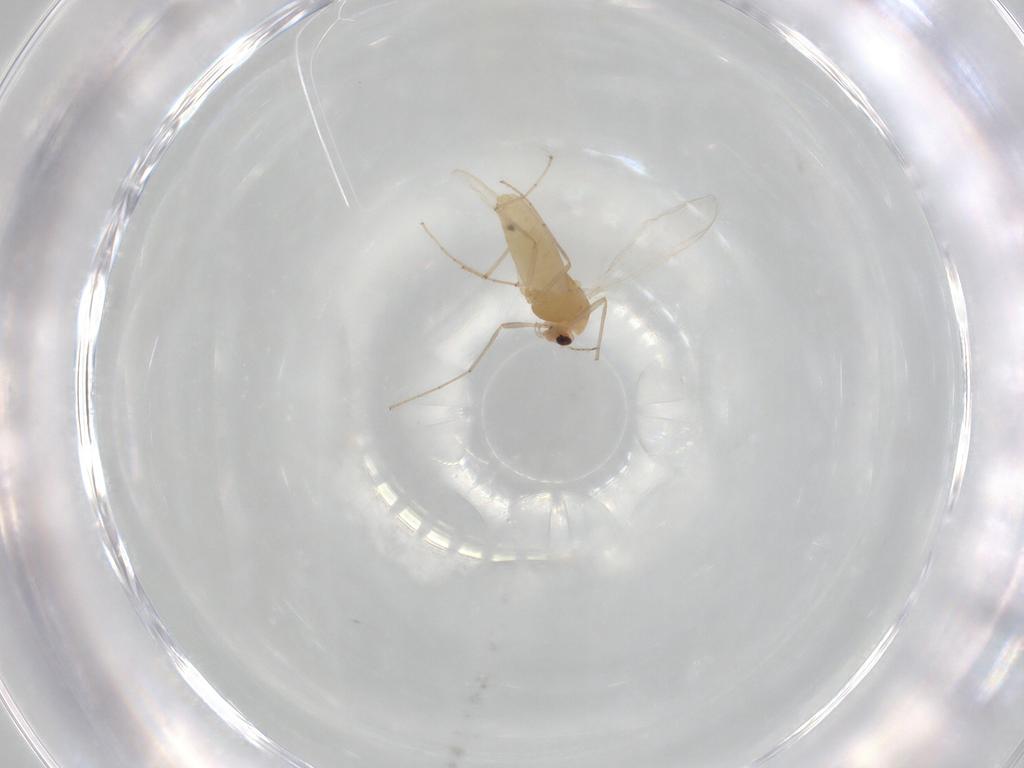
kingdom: Animalia
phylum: Arthropoda
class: Insecta
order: Diptera
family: Chironomidae
